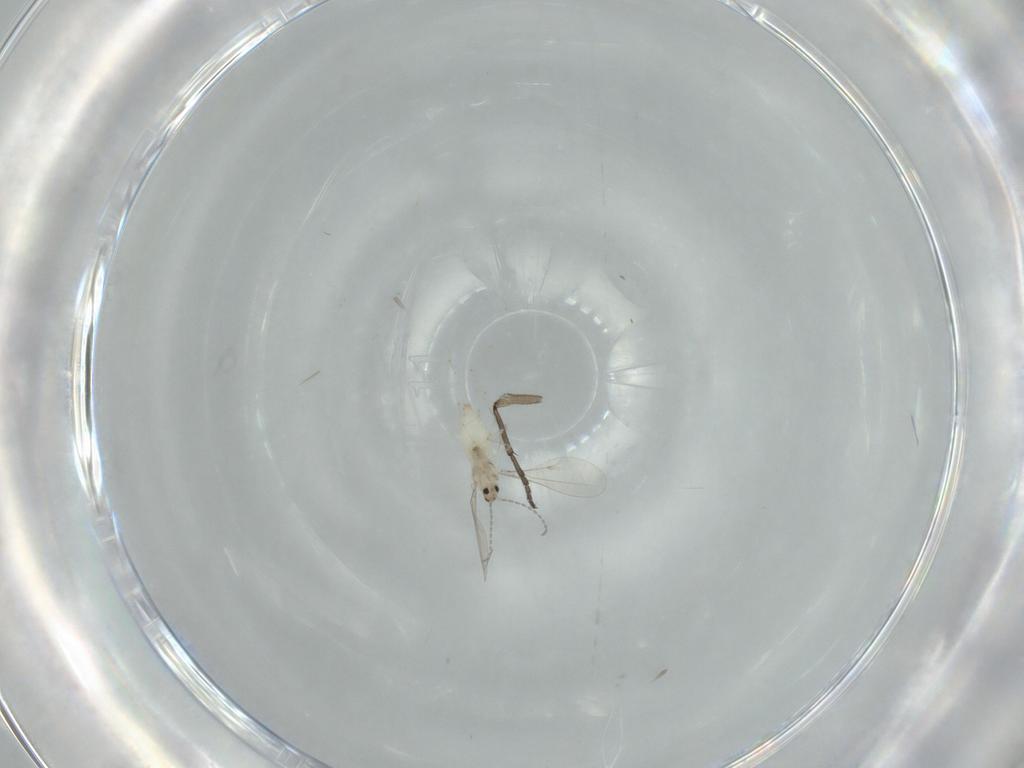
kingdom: Animalia
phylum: Arthropoda
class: Insecta
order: Diptera
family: Cecidomyiidae
